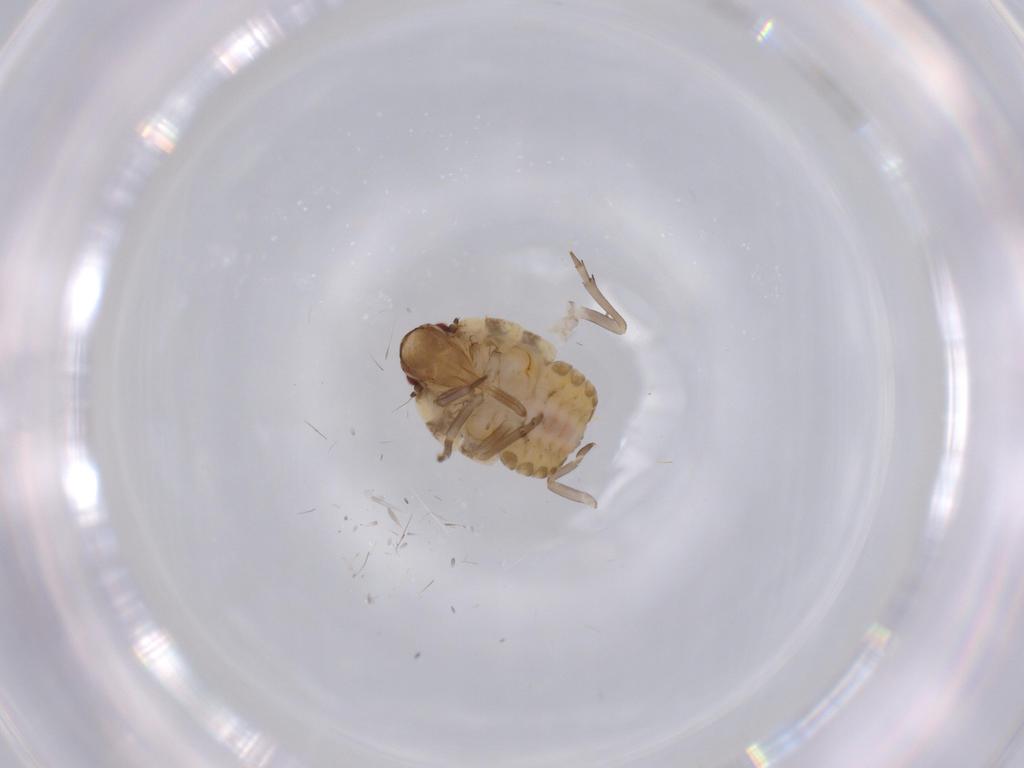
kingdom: Animalia
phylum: Arthropoda
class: Insecta
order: Hemiptera
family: Flatidae
